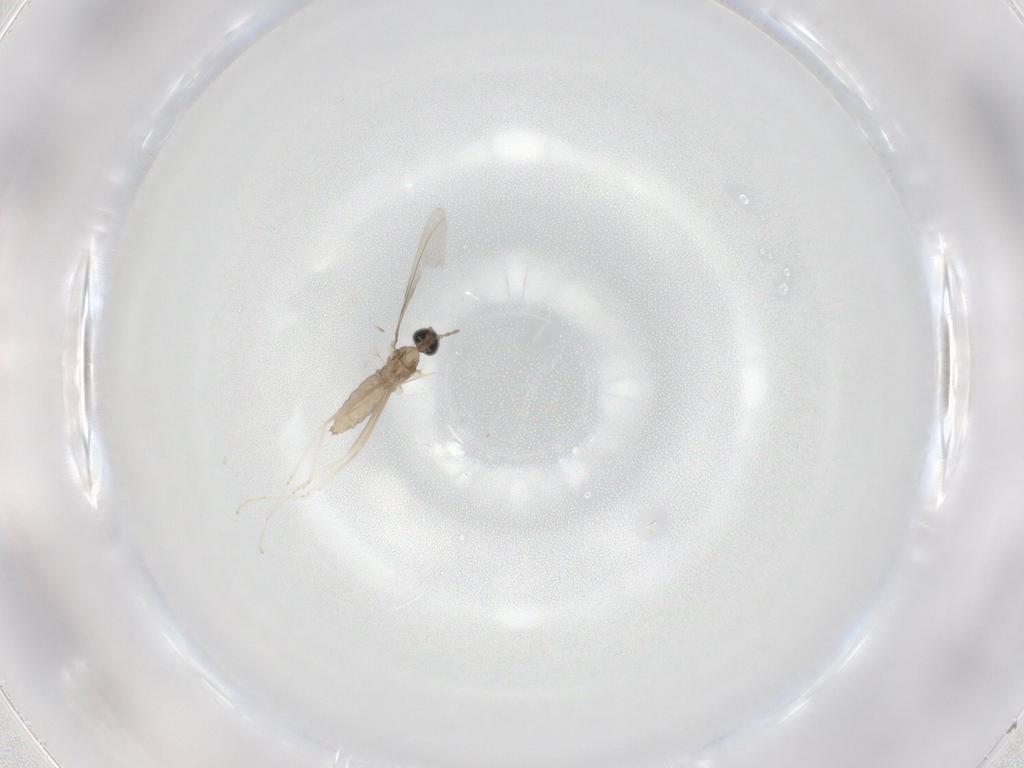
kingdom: Animalia
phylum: Arthropoda
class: Insecta
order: Diptera
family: Cecidomyiidae
